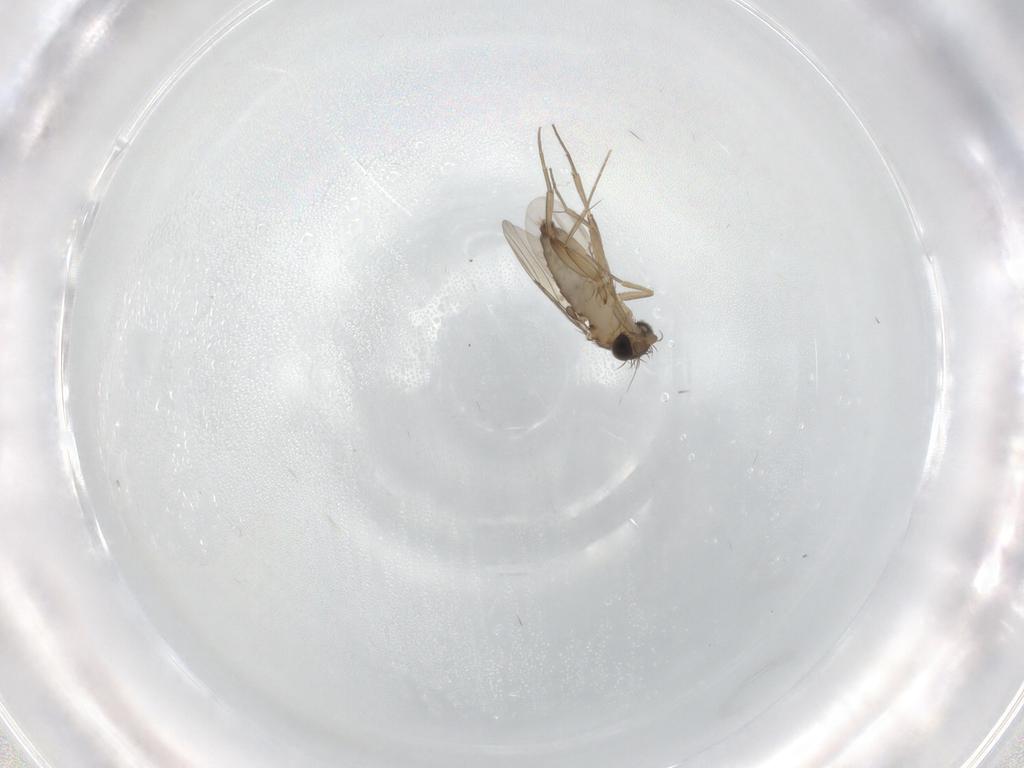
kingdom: Animalia
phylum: Arthropoda
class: Insecta
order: Diptera
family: Phoridae
